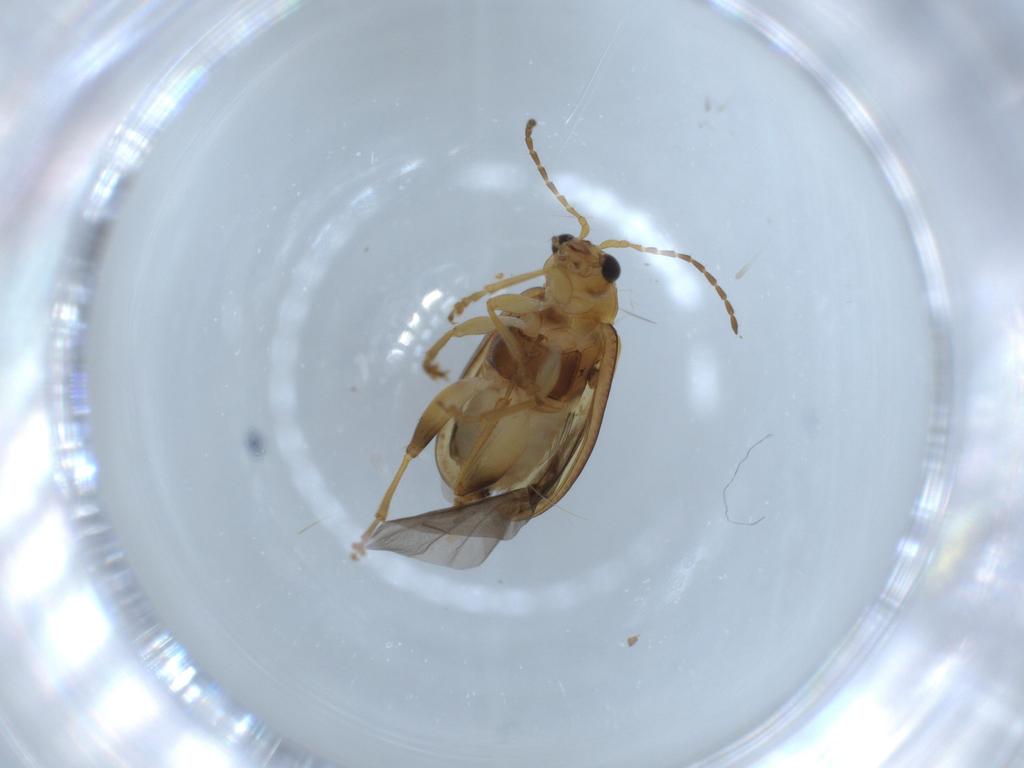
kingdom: Animalia
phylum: Arthropoda
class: Insecta
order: Coleoptera
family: Chrysomelidae
